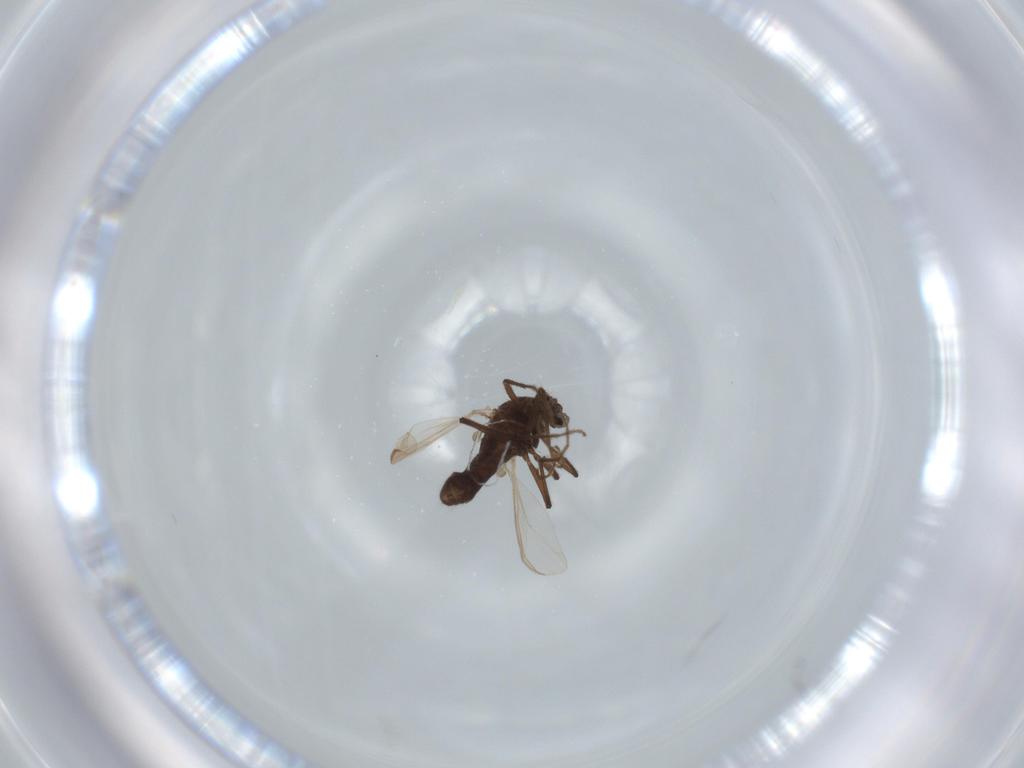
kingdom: Animalia
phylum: Arthropoda
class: Insecta
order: Diptera
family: Chironomidae
